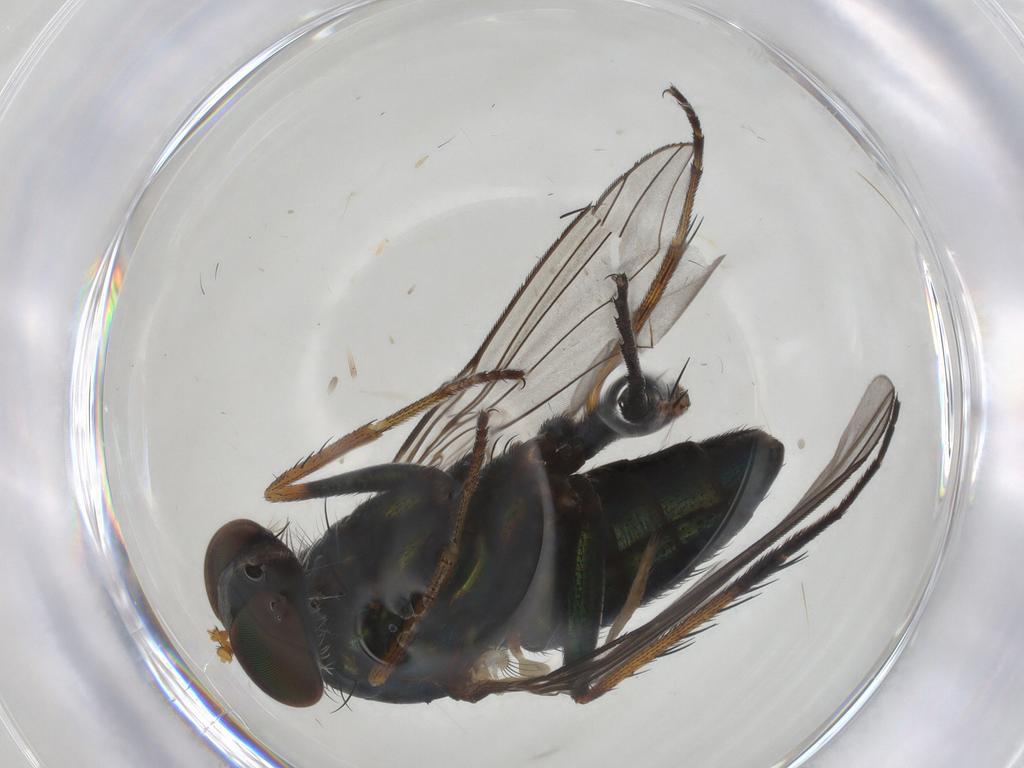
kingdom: Animalia
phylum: Arthropoda
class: Insecta
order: Diptera
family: Dolichopodidae
